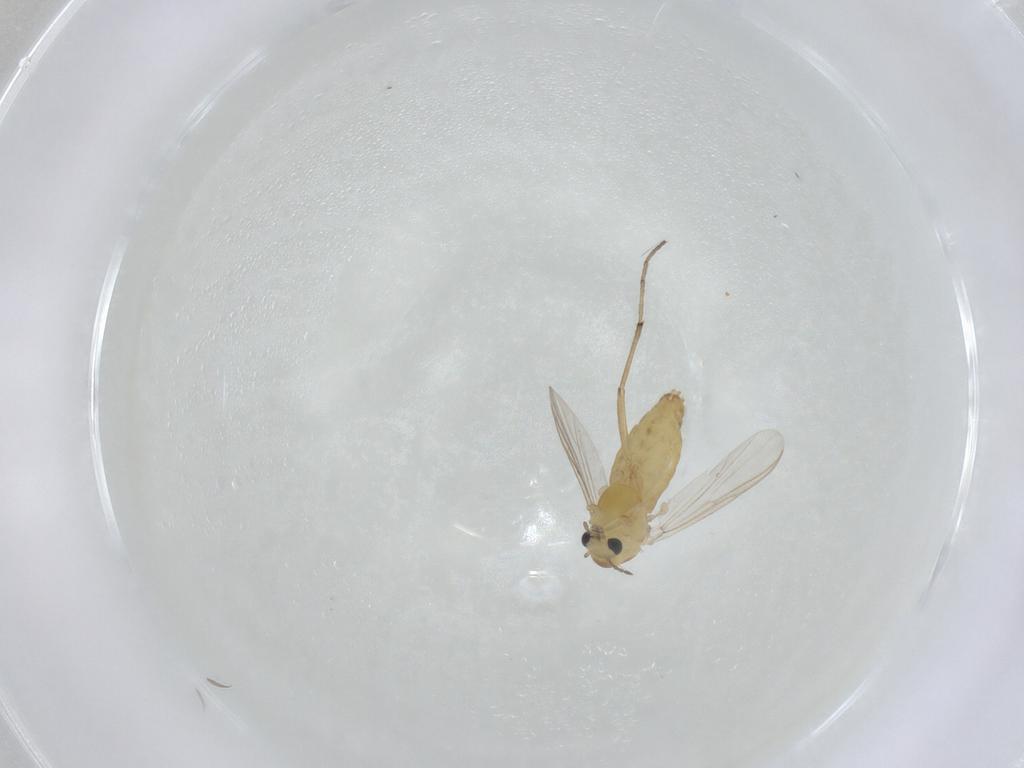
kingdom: Animalia
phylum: Arthropoda
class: Insecta
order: Diptera
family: Chironomidae
